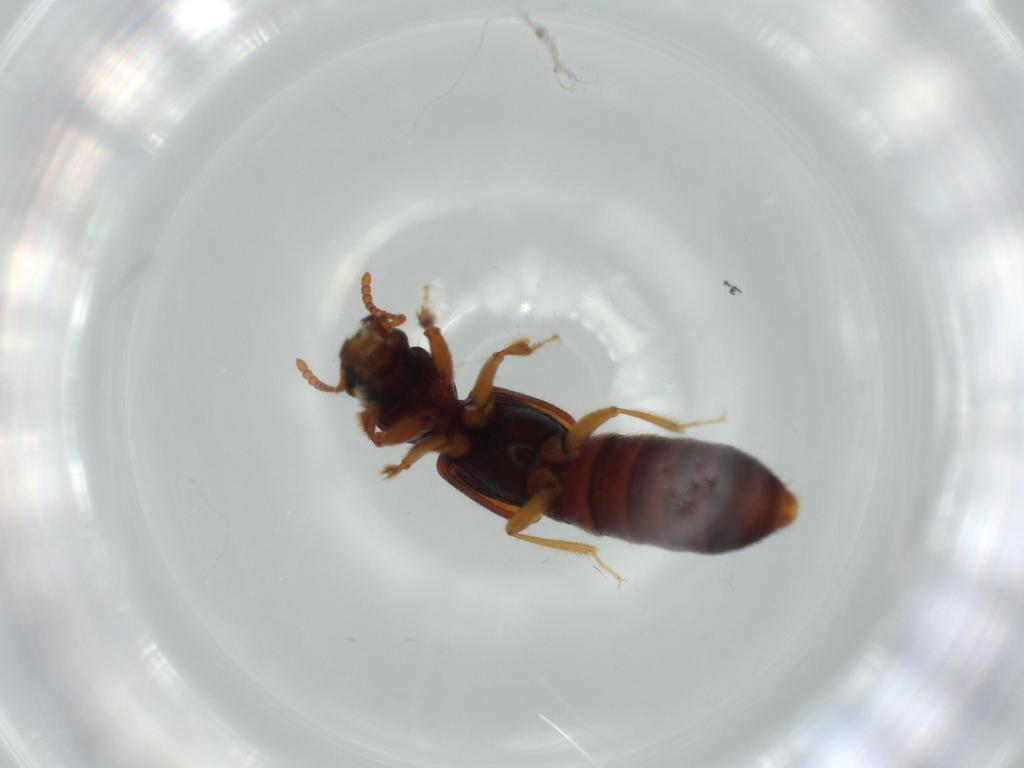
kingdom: Animalia
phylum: Arthropoda
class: Insecta
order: Coleoptera
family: Staphylinidae
